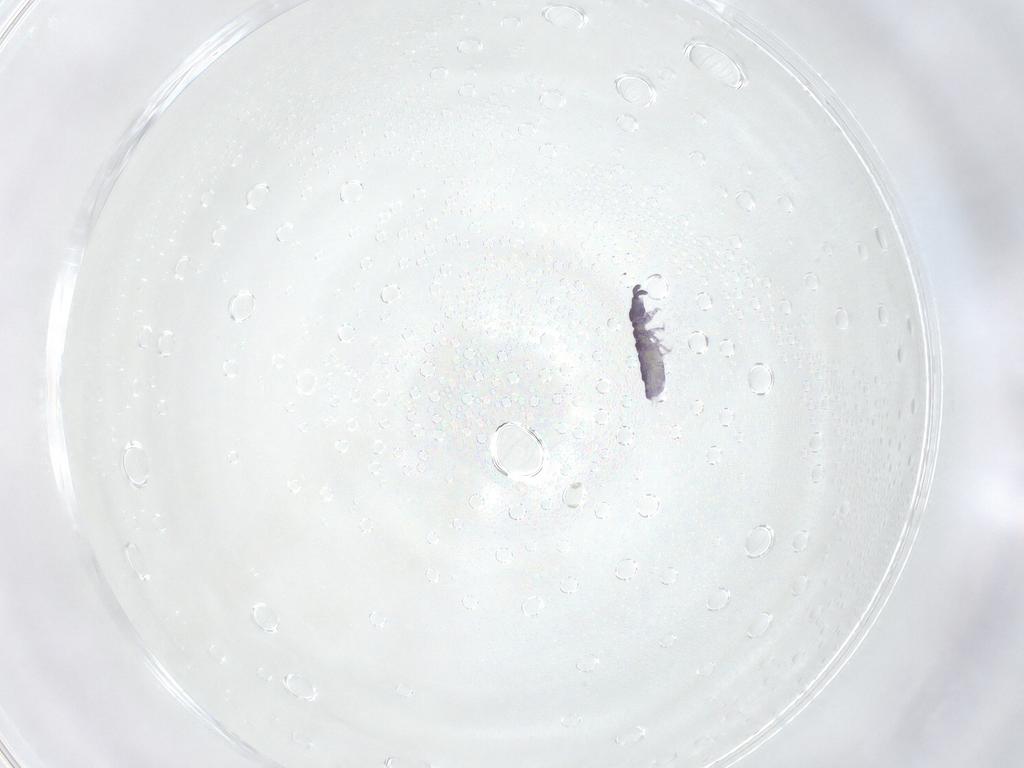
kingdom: Animalia
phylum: Arthropoda
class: Collembola
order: Poduromorpha
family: Neanuridae
